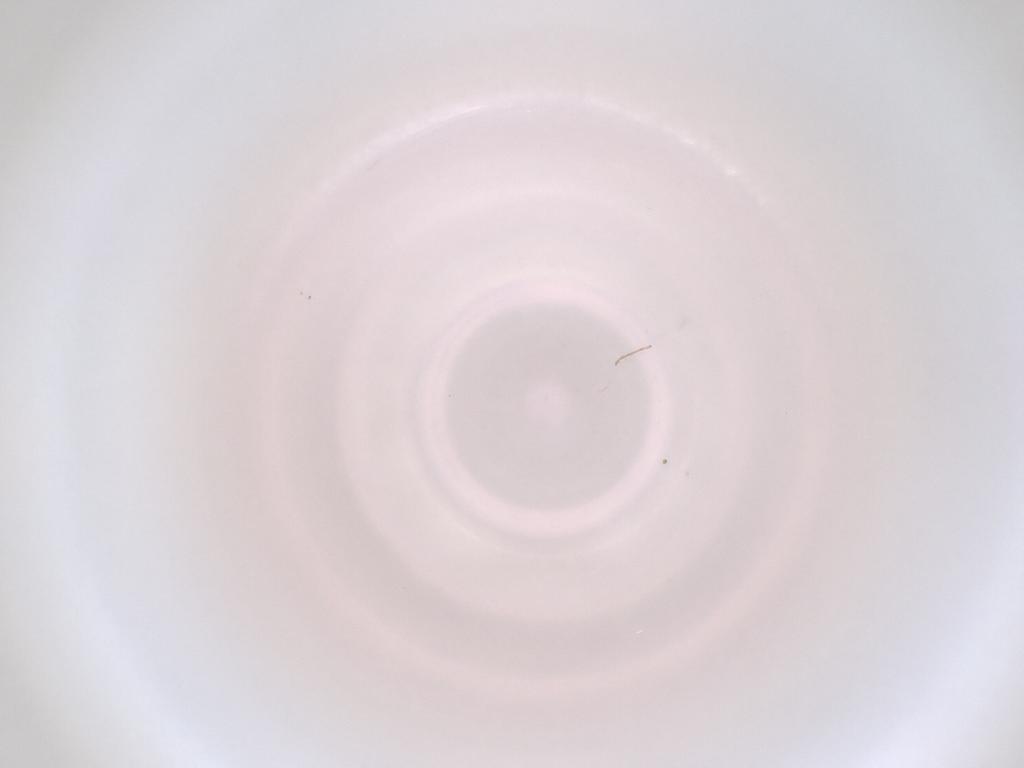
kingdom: Animalia
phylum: Arthropoda
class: Insecta
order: Diptera
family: Cecidomyiidae
